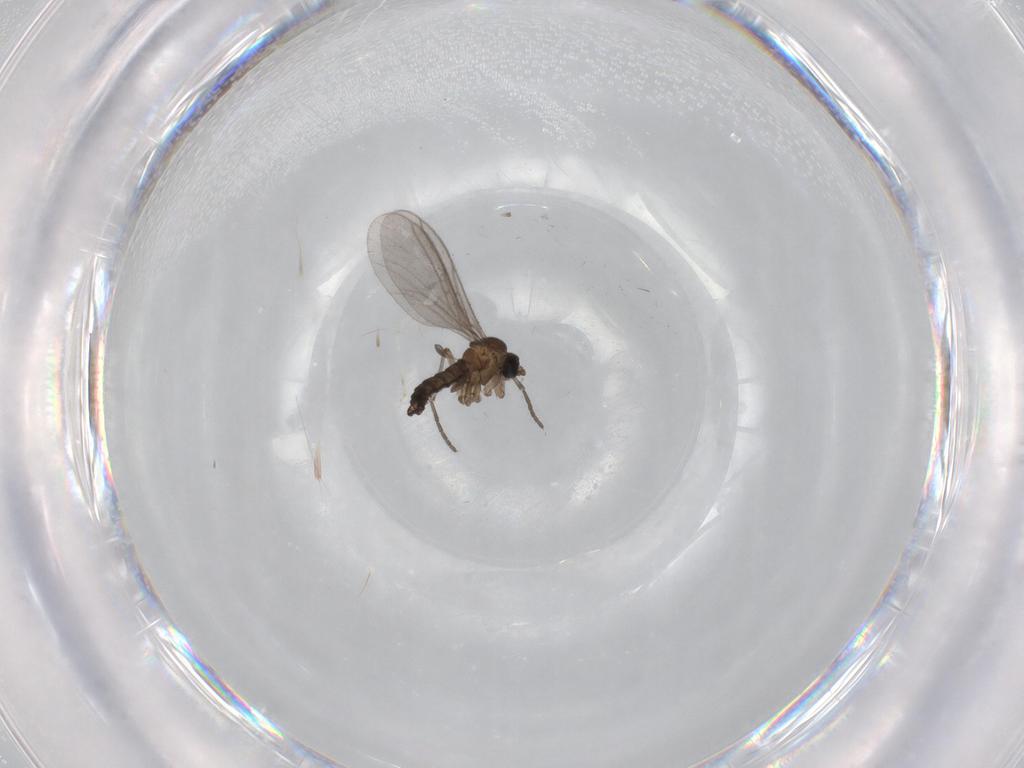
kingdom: Animalia
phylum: Arthropoda
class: Insecta
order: Diptera
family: Sciaridae
